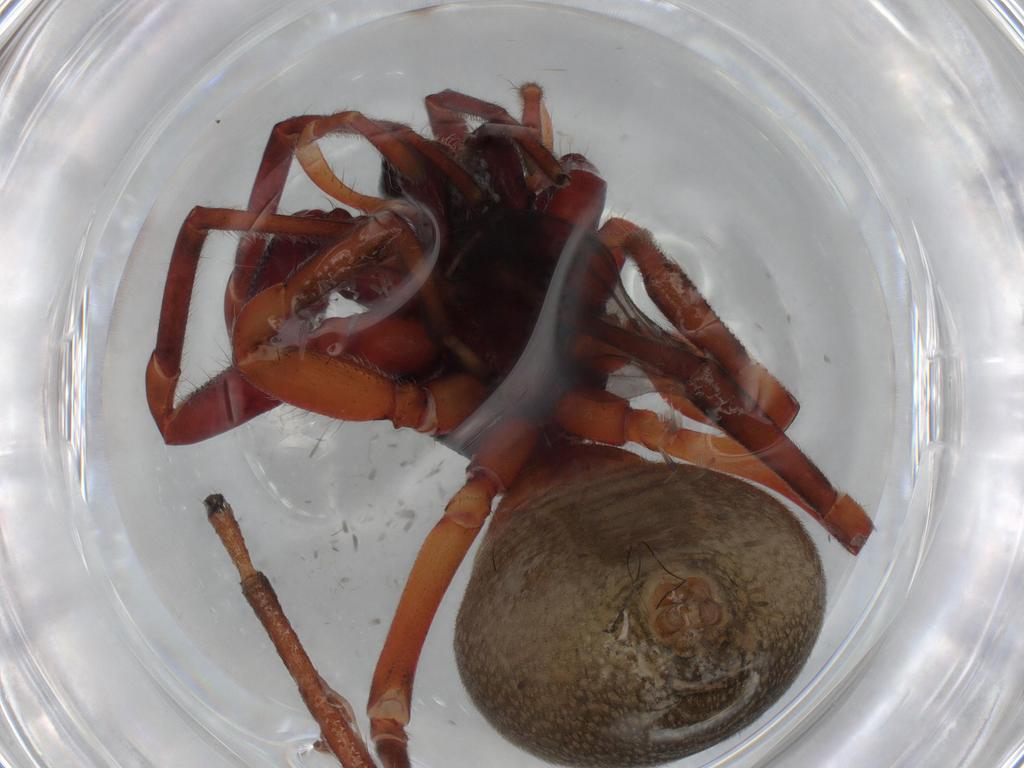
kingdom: Animalia
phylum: Arthropoda
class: Arachnida
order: Araneae
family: Trachelidae
